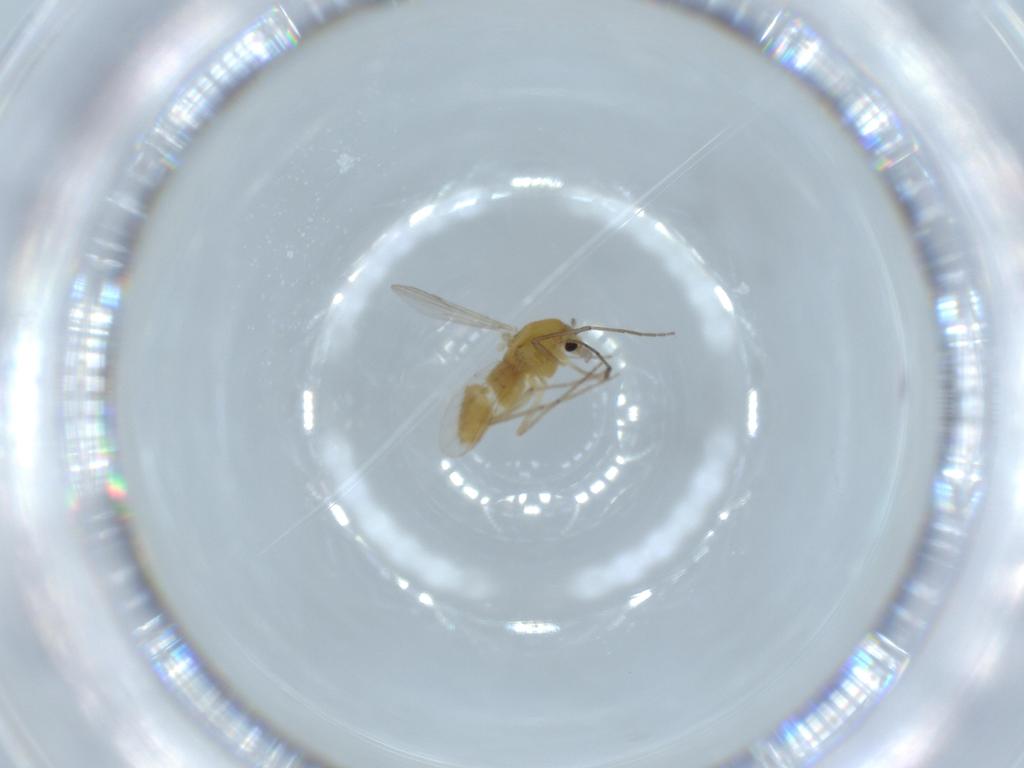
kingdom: Animalia
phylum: Arthropoda
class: Insecta
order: Diptera
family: Chironomidae
